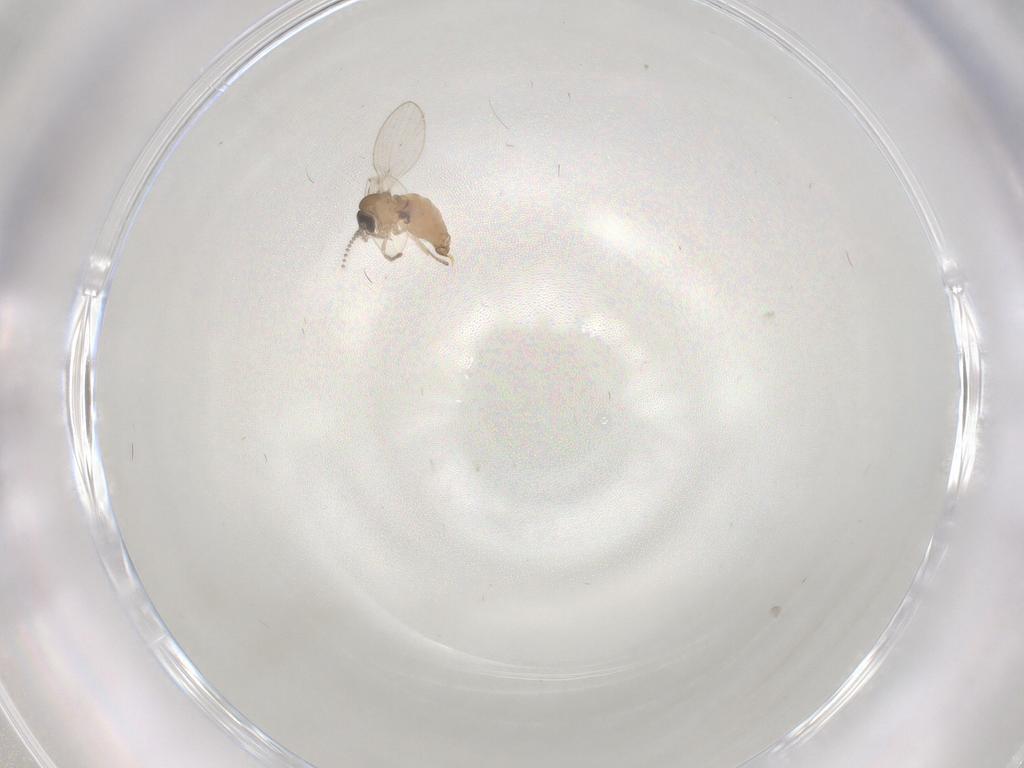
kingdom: Animalia
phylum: Arthropoda
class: Insecta
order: Diptera
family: Psychodidae
